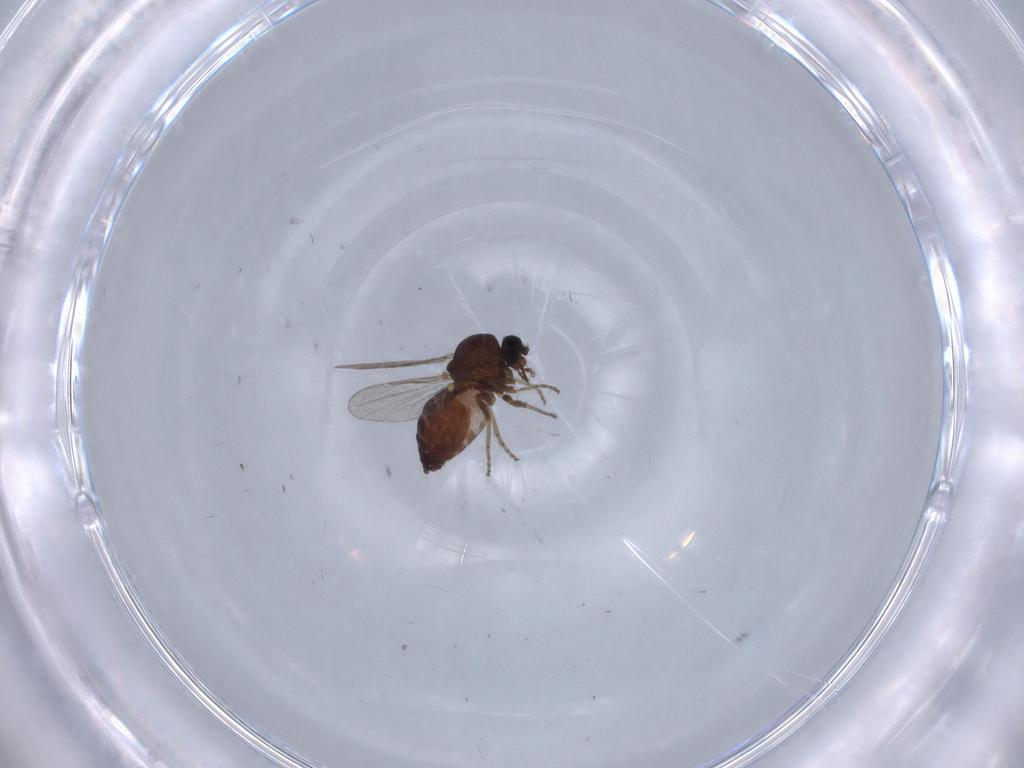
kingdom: Animalia
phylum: Arthropoda
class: Insecta
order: Diptera
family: Ceratopogonidae
